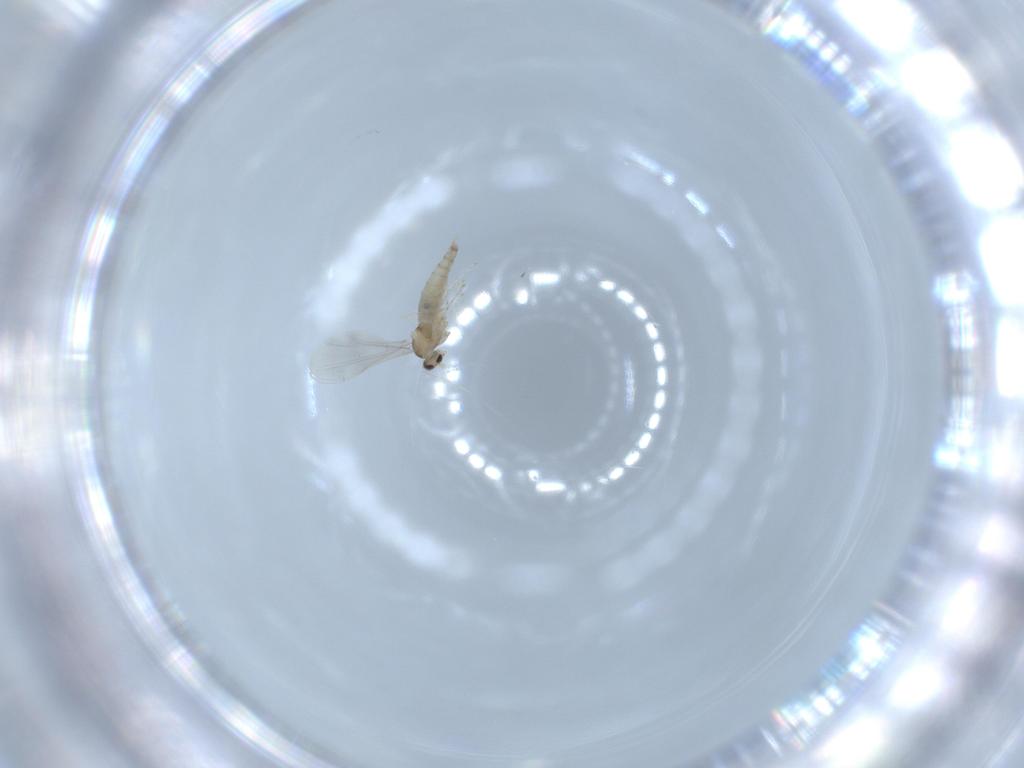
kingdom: Animalia
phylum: Arthropoda
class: Insecta
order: Diptera
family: Cecidomyiidae
